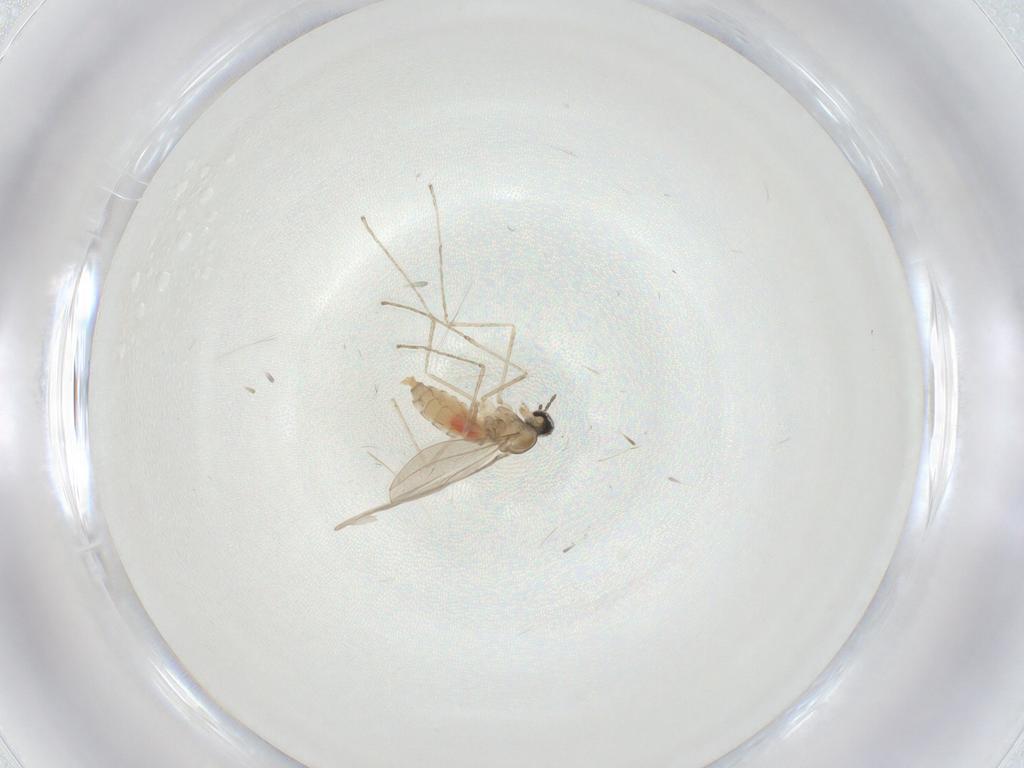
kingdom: Animalia
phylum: Arthropoda
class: Insecta
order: Diptera
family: Cecidomyiidae
